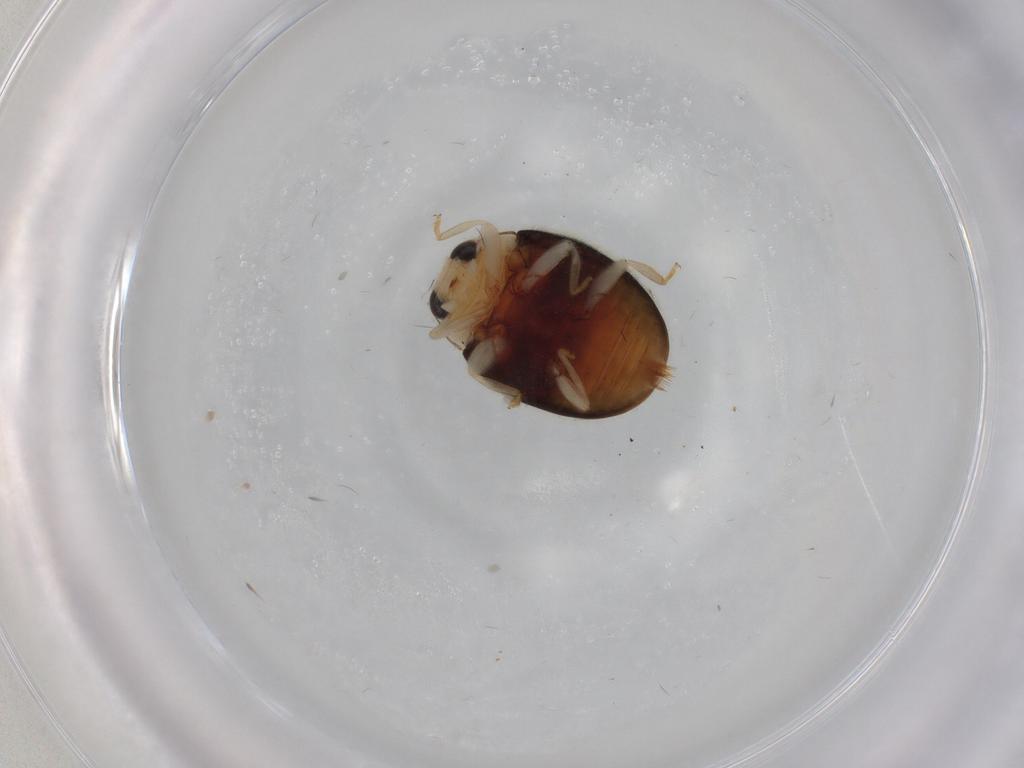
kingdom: Animalia
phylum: Arthropoda
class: Insecta
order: Coleoptera
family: Coccinellidae
